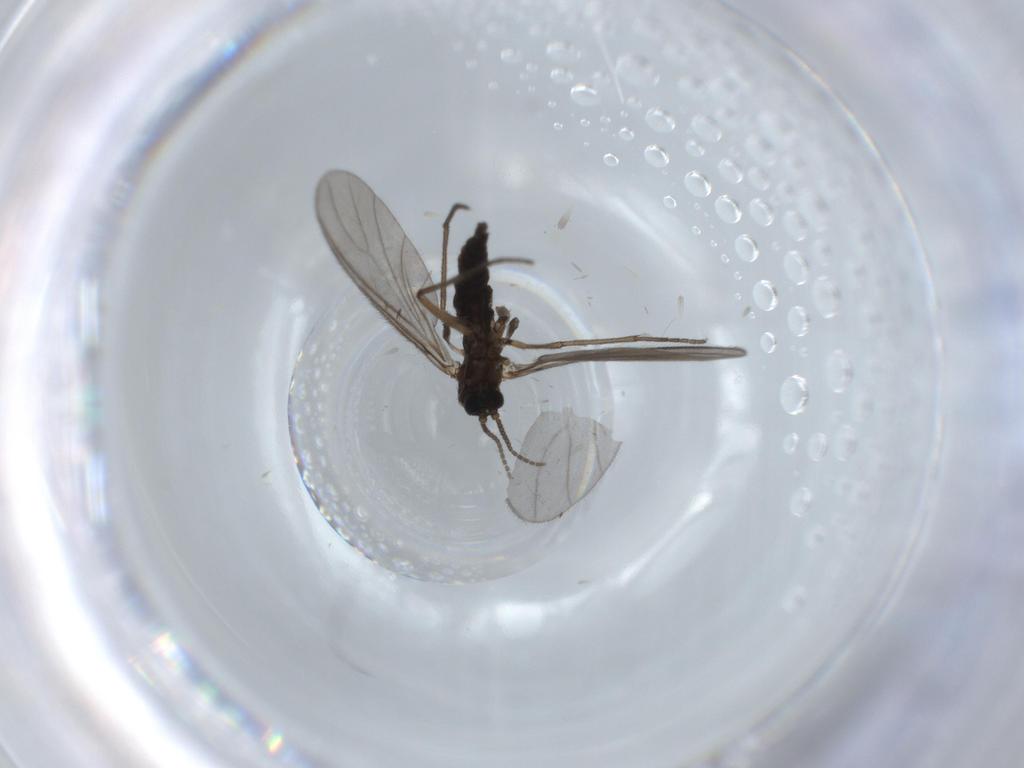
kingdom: Animalia
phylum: Arthropoda
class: Insecta
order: Diptera
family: Sciaridae
